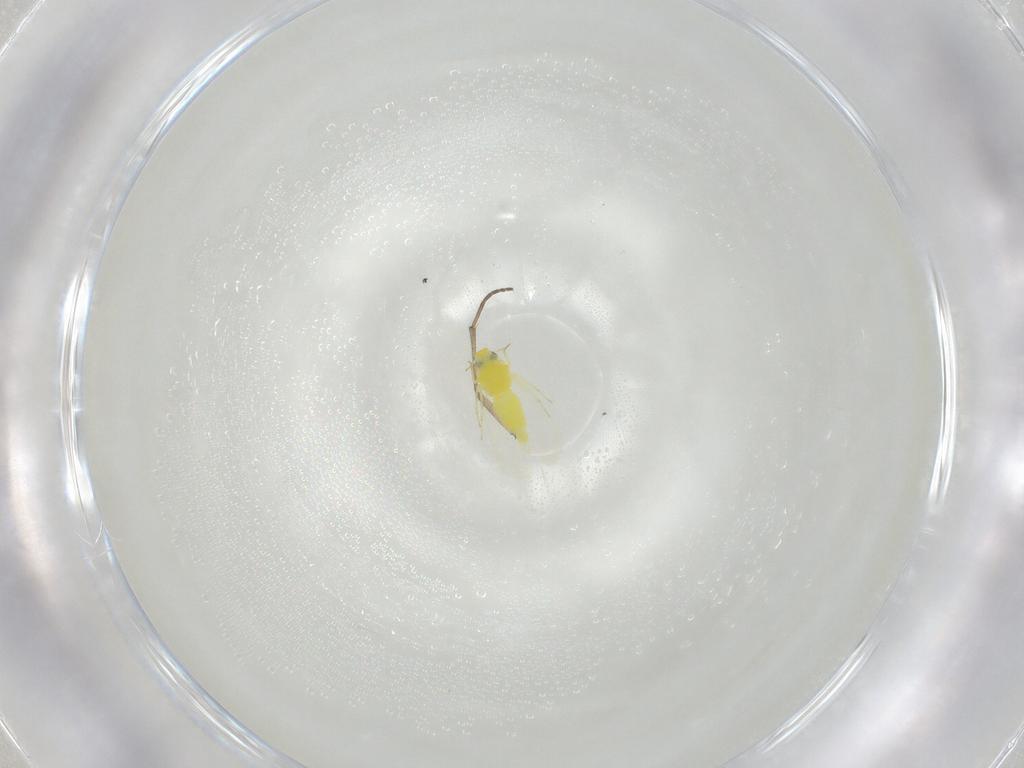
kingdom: Animalia
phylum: Arthropoda
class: Insecta
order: Hemiptera
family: Aleyrodidae
